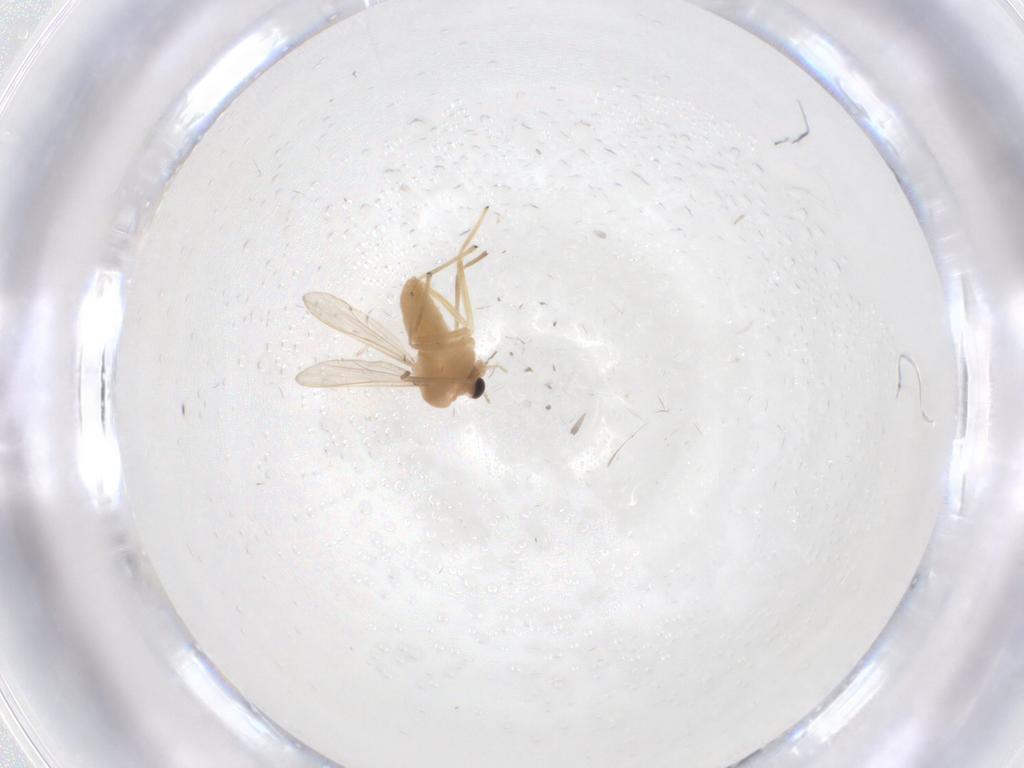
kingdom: Animalia
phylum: Arthropoda
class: Insecta
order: Diptera
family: Chironomidae
